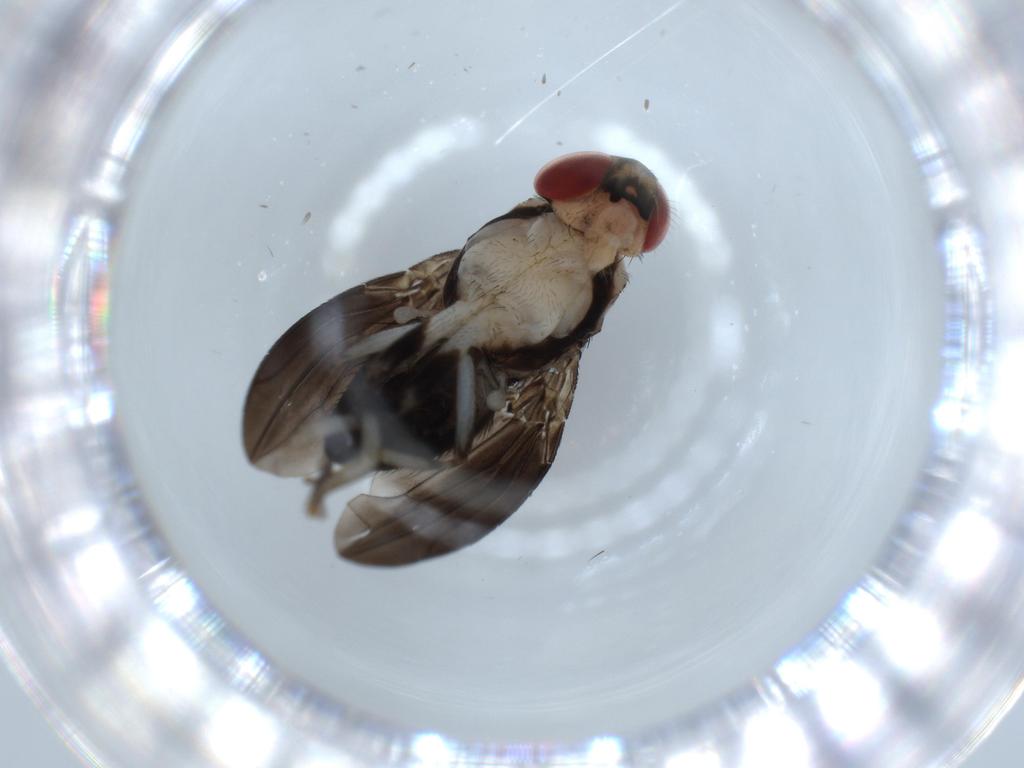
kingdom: Animalia
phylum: Arthropoda
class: Insecta
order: Diptera
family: Drosophilidae
